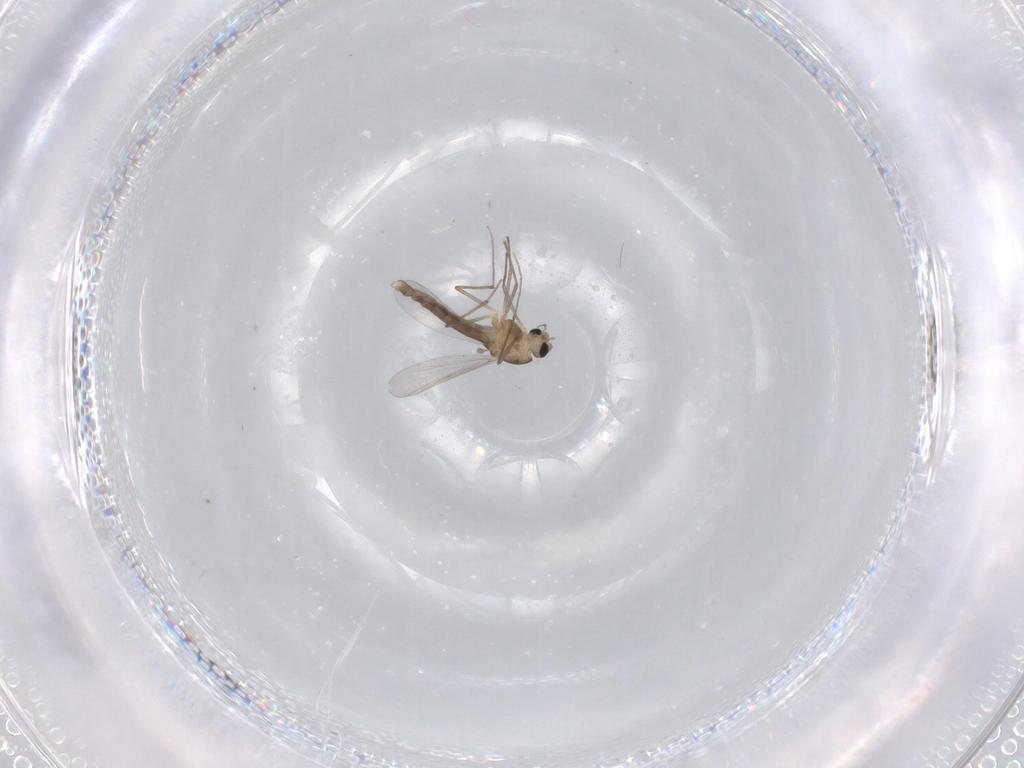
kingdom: Animalia
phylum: Arthropoda
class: Insecta
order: Diptera
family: Chironomidae
